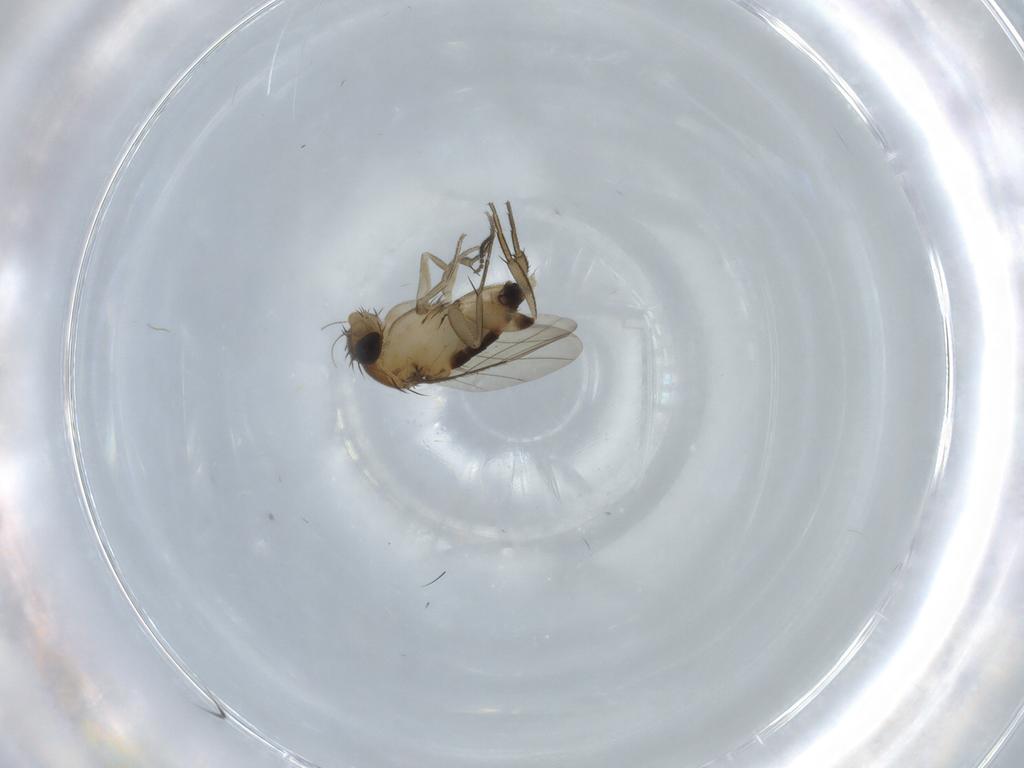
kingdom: Animalia
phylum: Arthropoda
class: Insecta
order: Diptera
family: Phoridae
